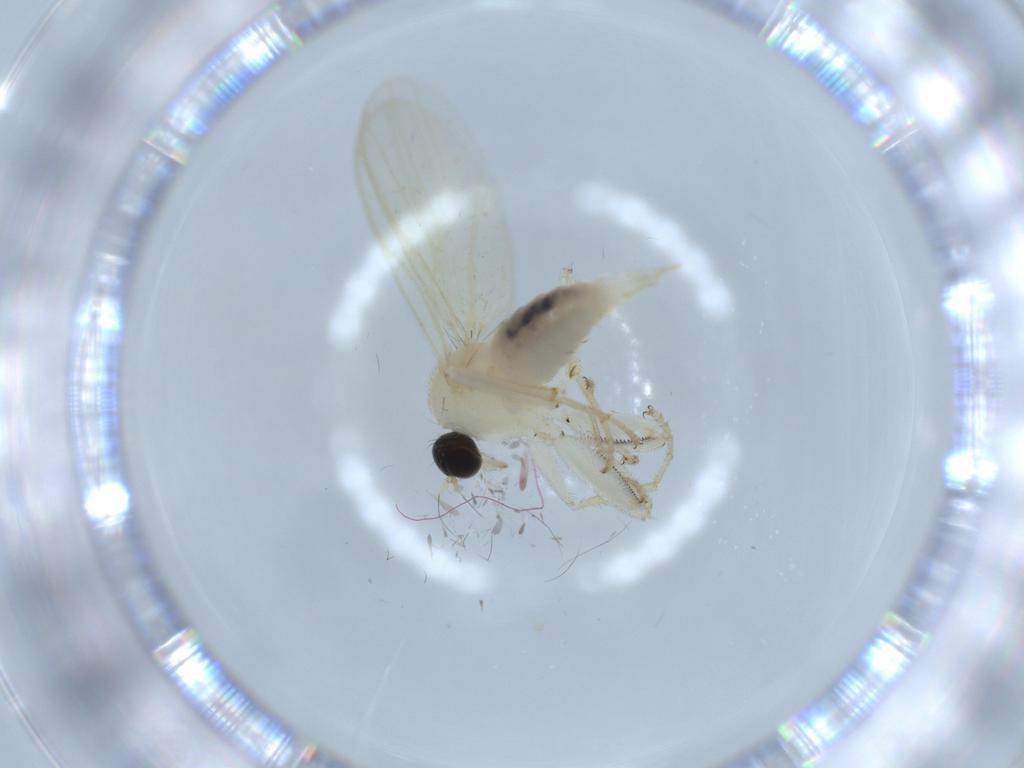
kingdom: Animalia
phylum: Arthropoda
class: Insecta
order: Diptera
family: Hybotidae
